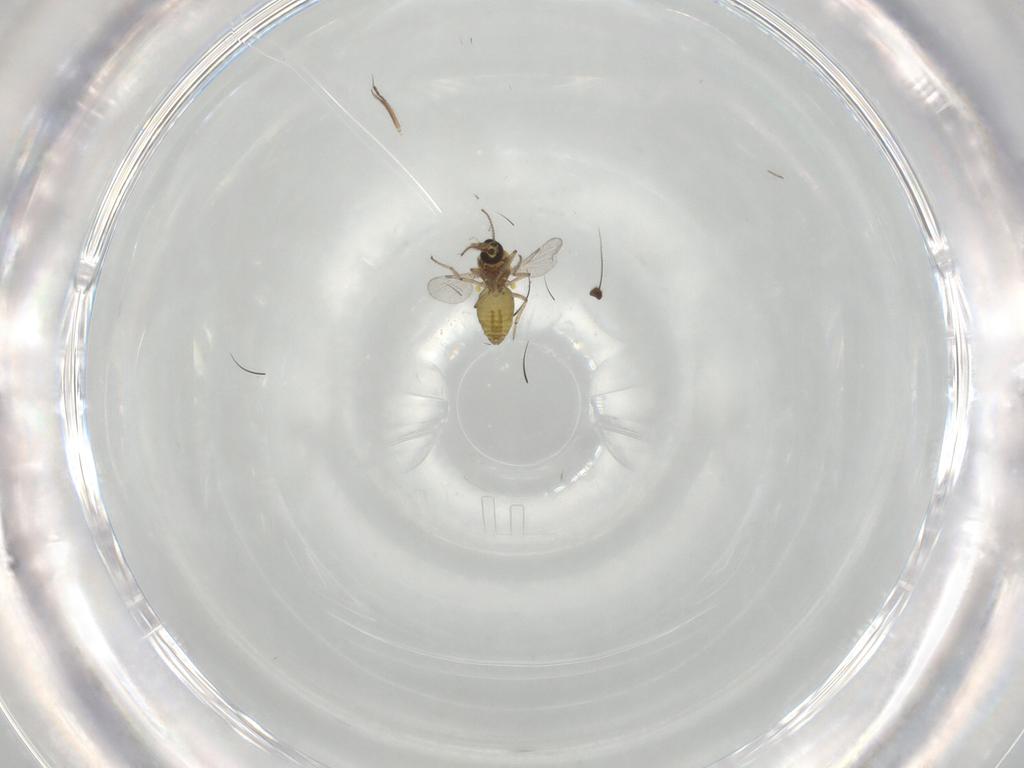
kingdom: Animalia
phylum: Arthropoda
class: Insecta
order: Diptera
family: Ceratopogonidae
